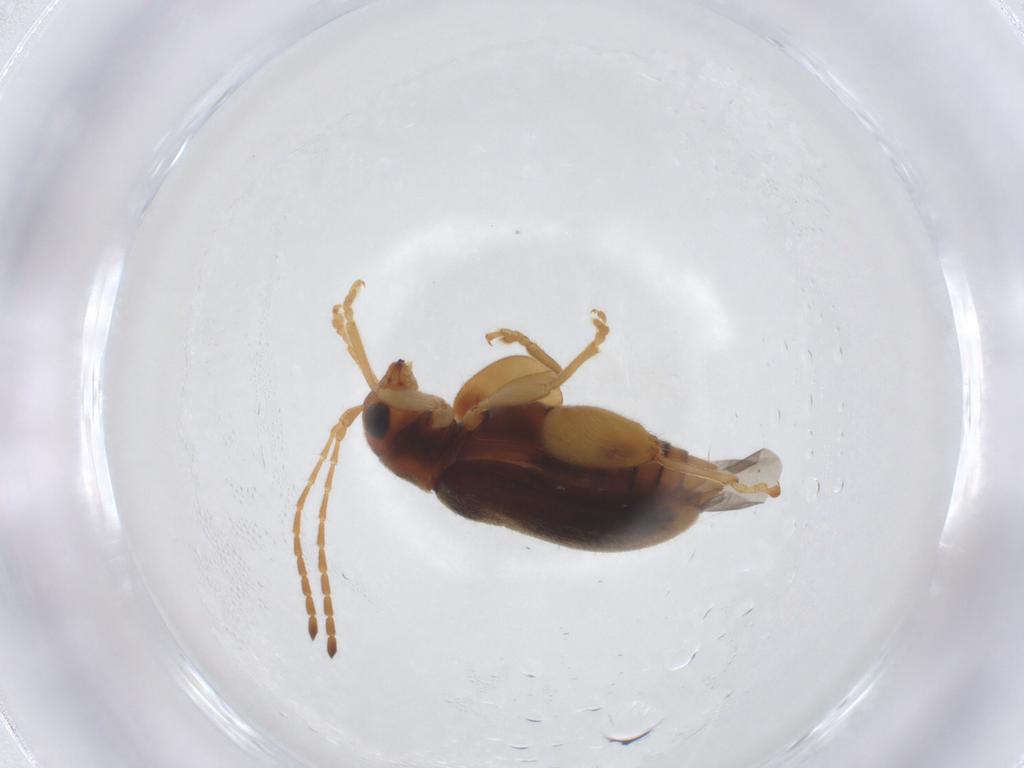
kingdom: Animalia
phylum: Arthropoda
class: Insecta
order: Coleoptera
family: Chrysomelidae
